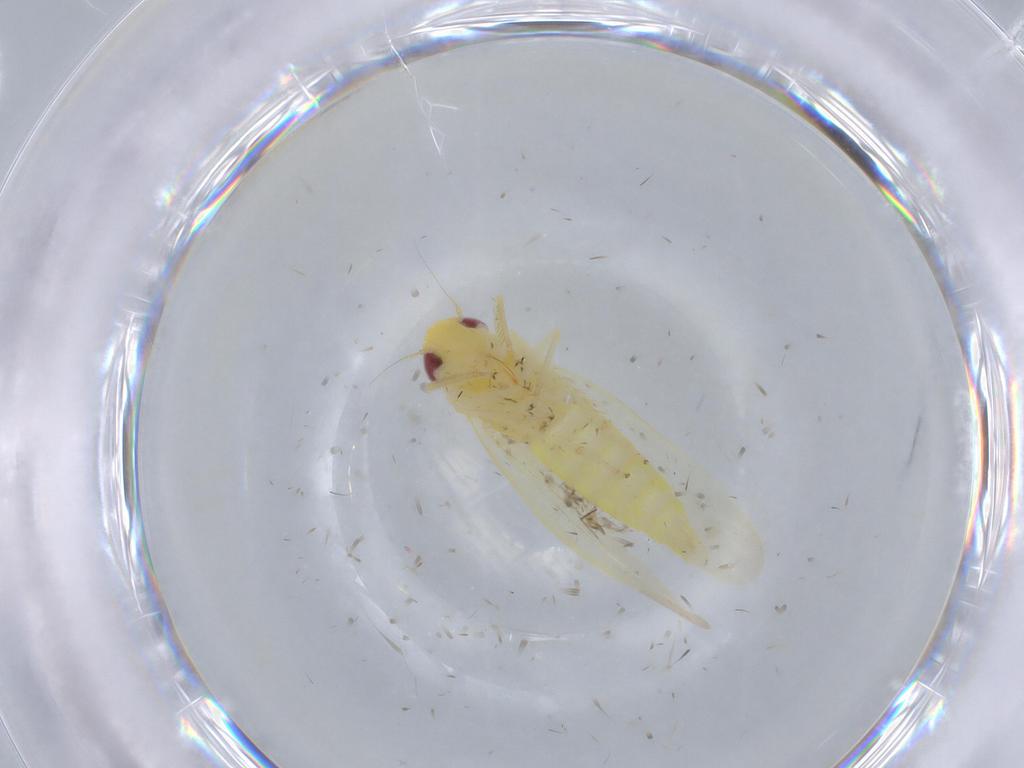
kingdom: Animalia
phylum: Arthropoda
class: Insecta
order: Hemiptera
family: Cicadellidae
